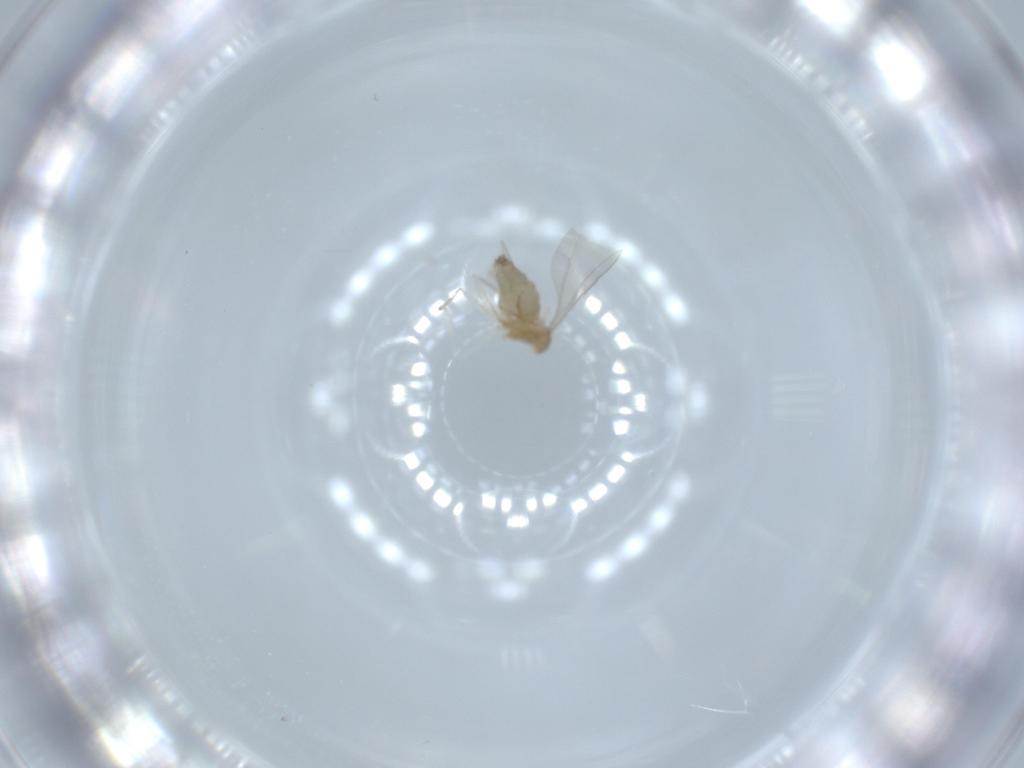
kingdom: Animalia
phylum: Arthropoda
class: Insecta
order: Diptera
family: Cecidomyiidae
